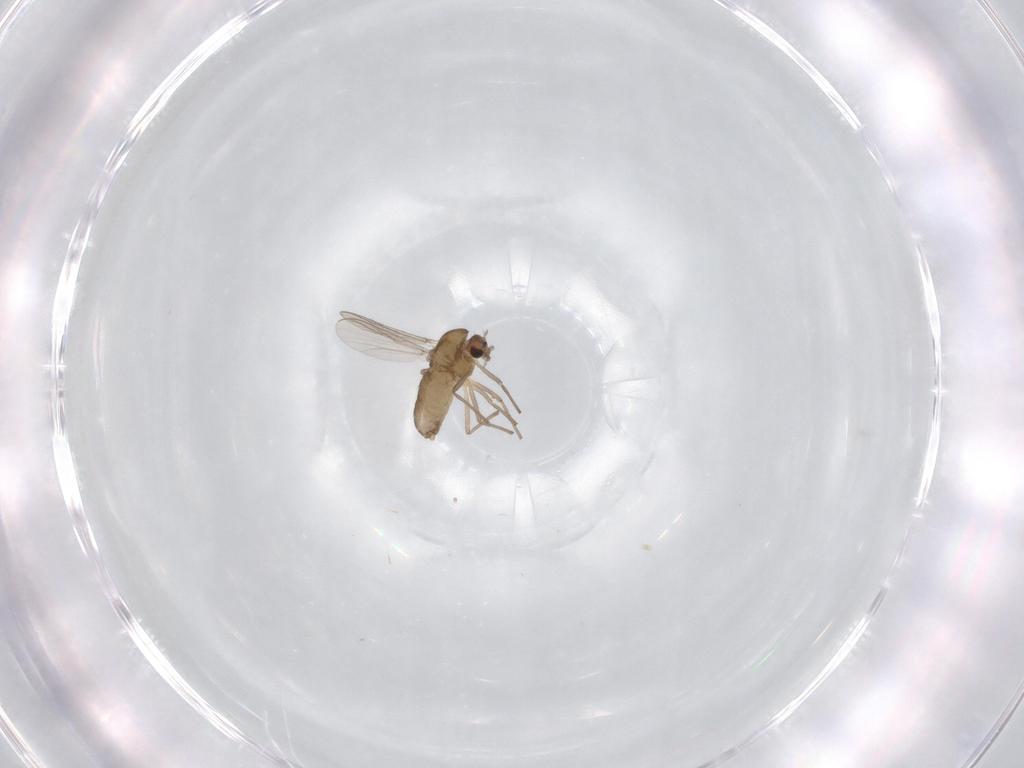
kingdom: Animalia
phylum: Arthropoda
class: Insecta
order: Diptera
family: Chironomidae
